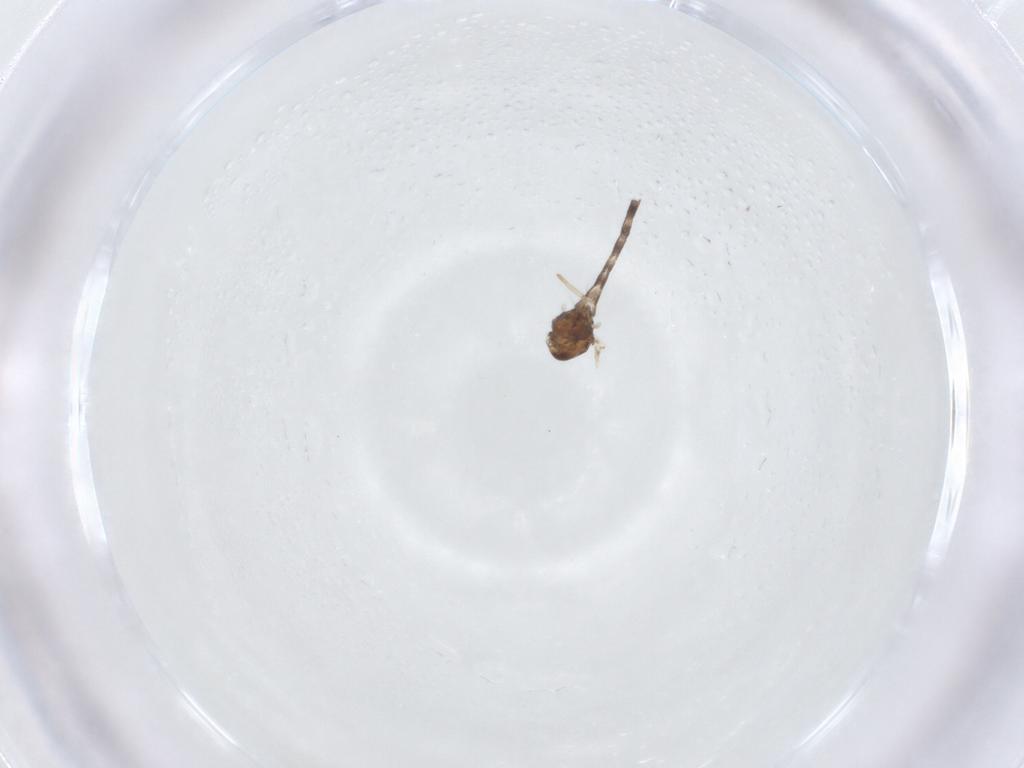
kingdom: Animalia
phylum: Arthropoda
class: Insecta
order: Diptera
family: Chironomidae
